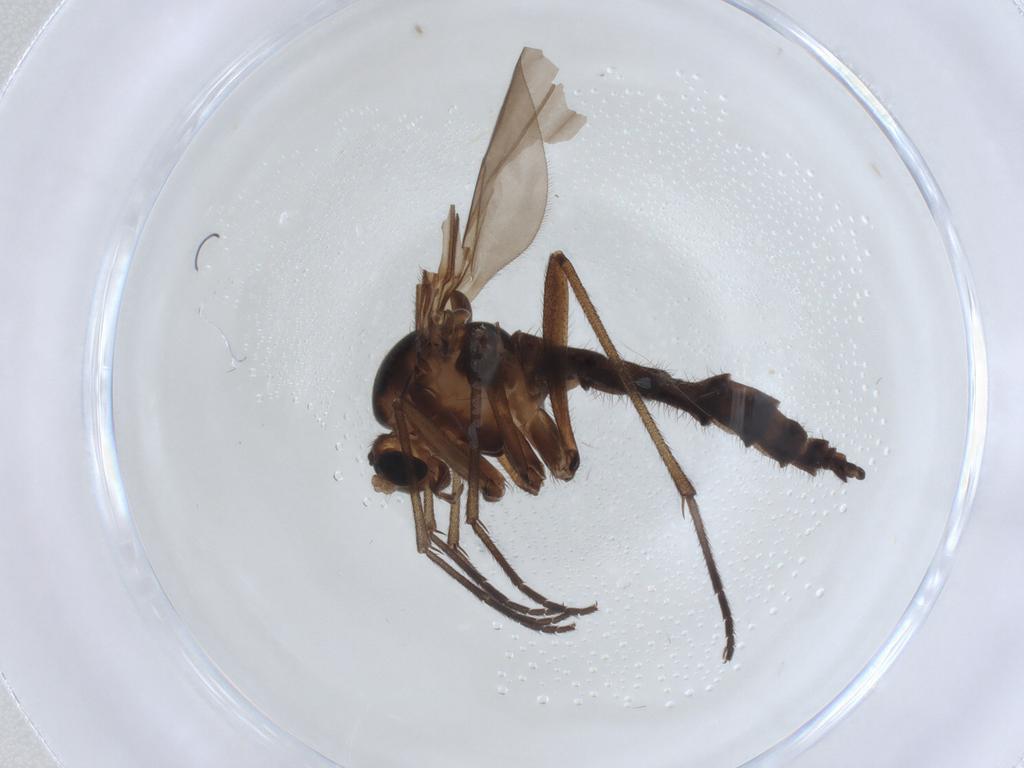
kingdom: Animalia
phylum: Arthropoda
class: Insecta
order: Diptera
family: Sciaridae
